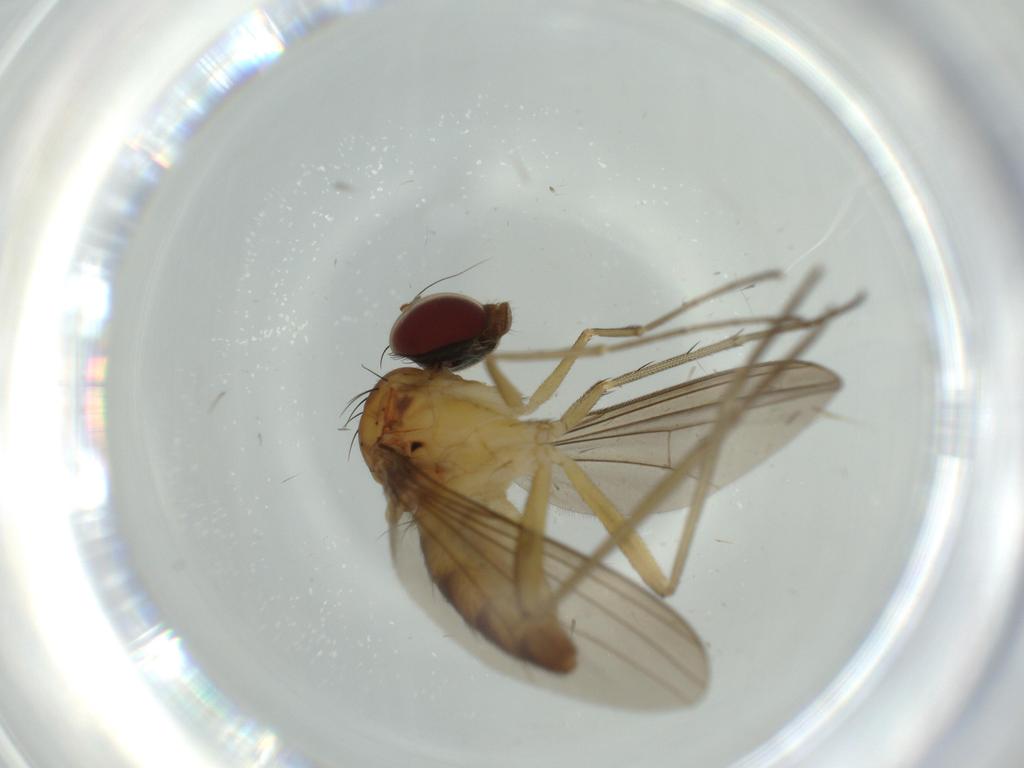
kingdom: Animalia
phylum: Arthropoda
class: Insecta
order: Diptera
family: Dolichopodidae
